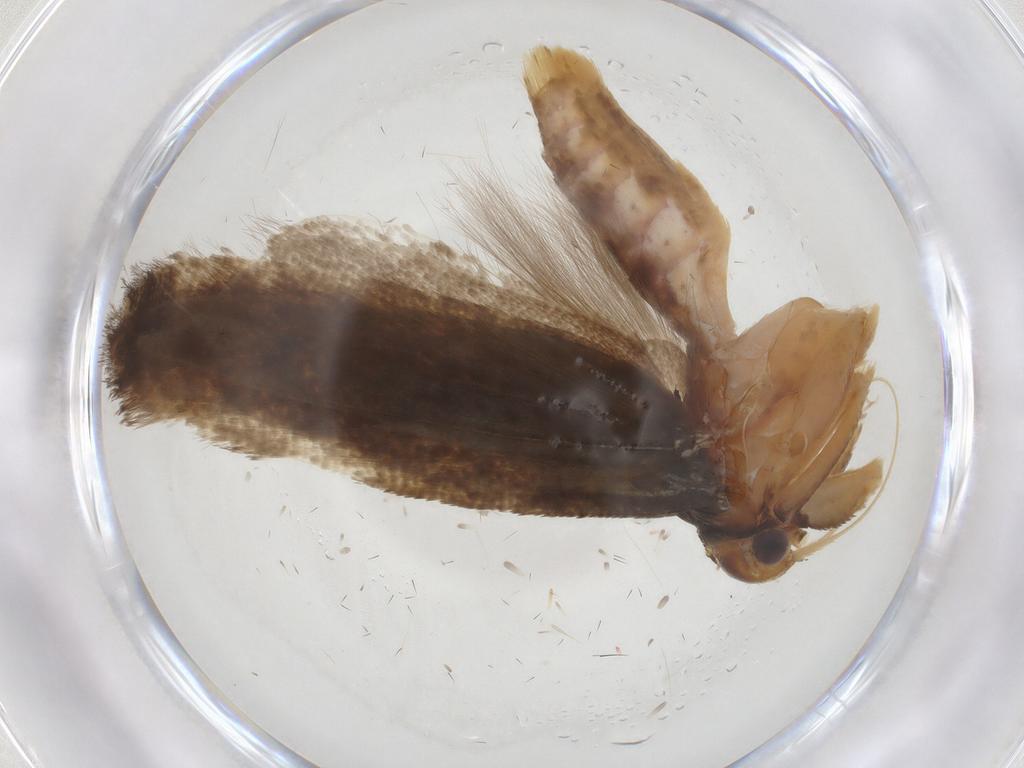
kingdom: Animalia
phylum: Arthropoda
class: Insecta
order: Lepidoptera
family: Gelechiidae
